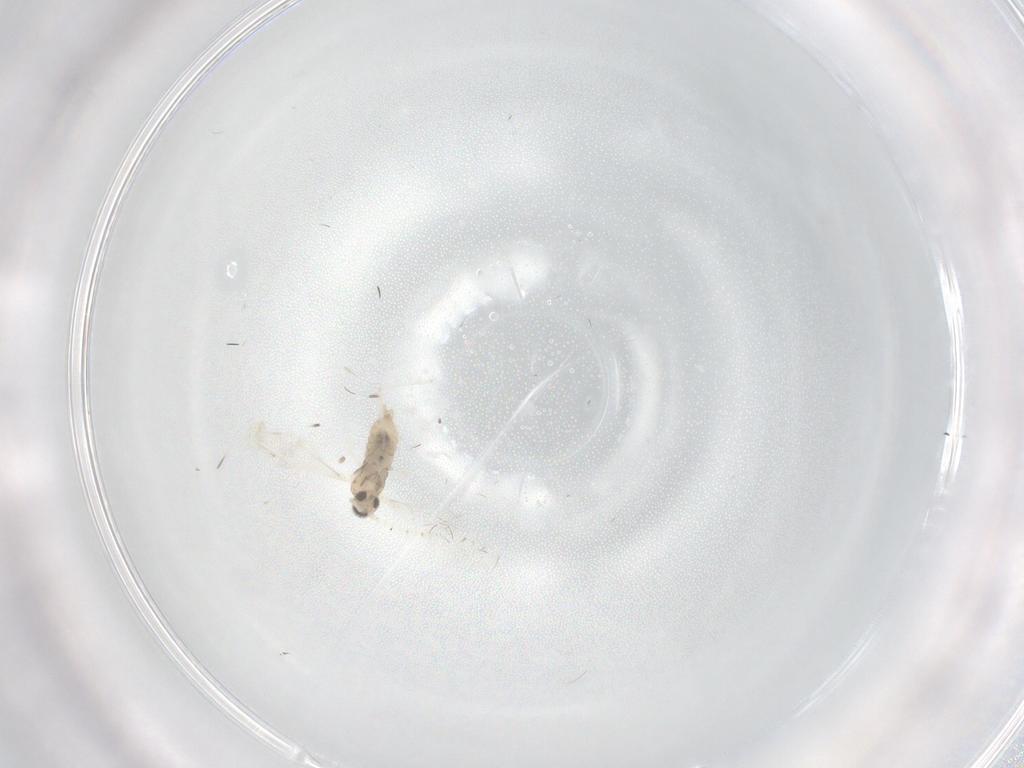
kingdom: Animalia
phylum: Arthropoda
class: Insecta
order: Diptera
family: Cecidomyiidae
